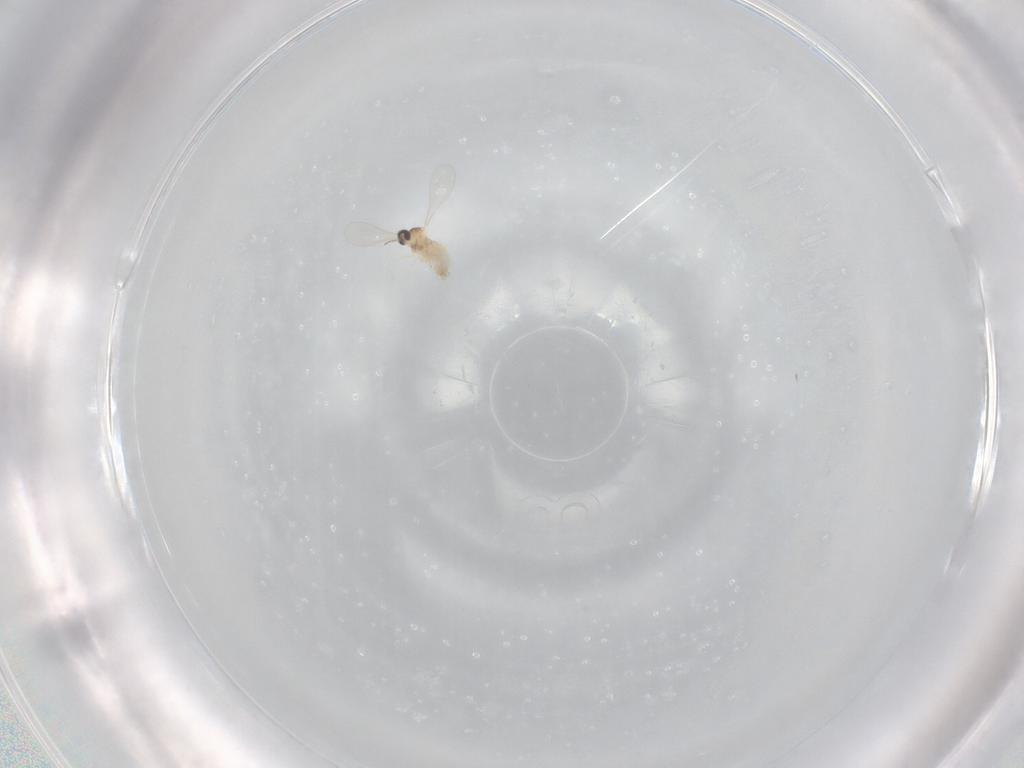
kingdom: Animalia
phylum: Arthropoda
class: Insecta
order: Diptera
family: Tabanidae
